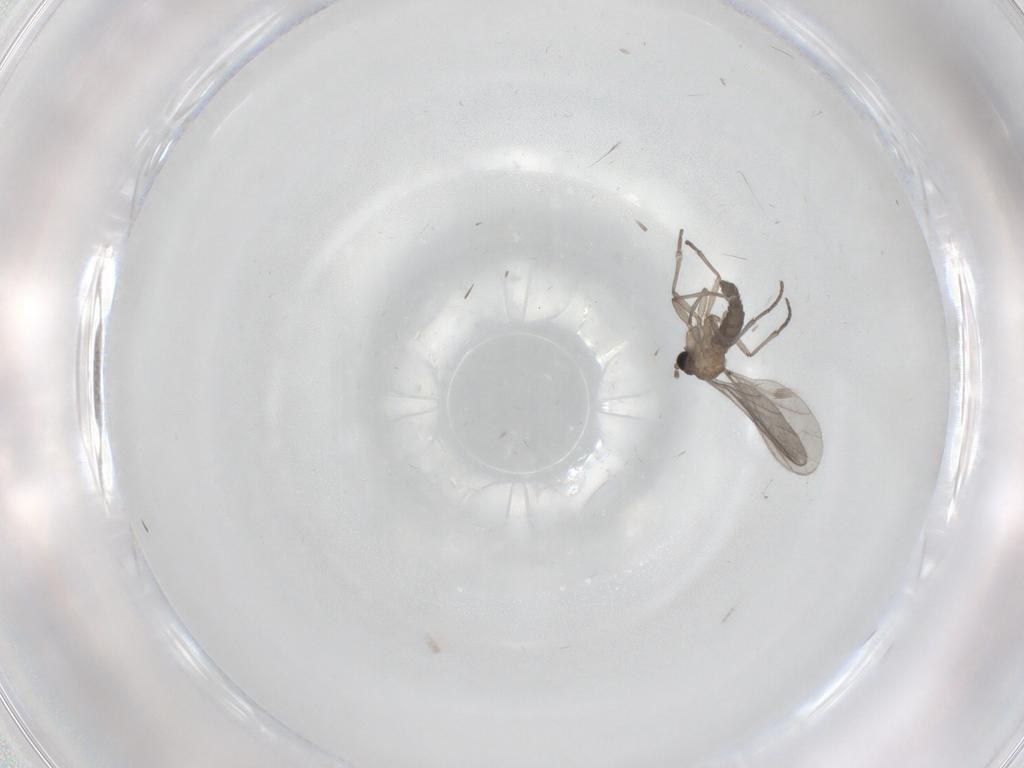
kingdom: Animalia
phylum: Arthropoda
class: Insecta
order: Diptera
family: Sciaridae
